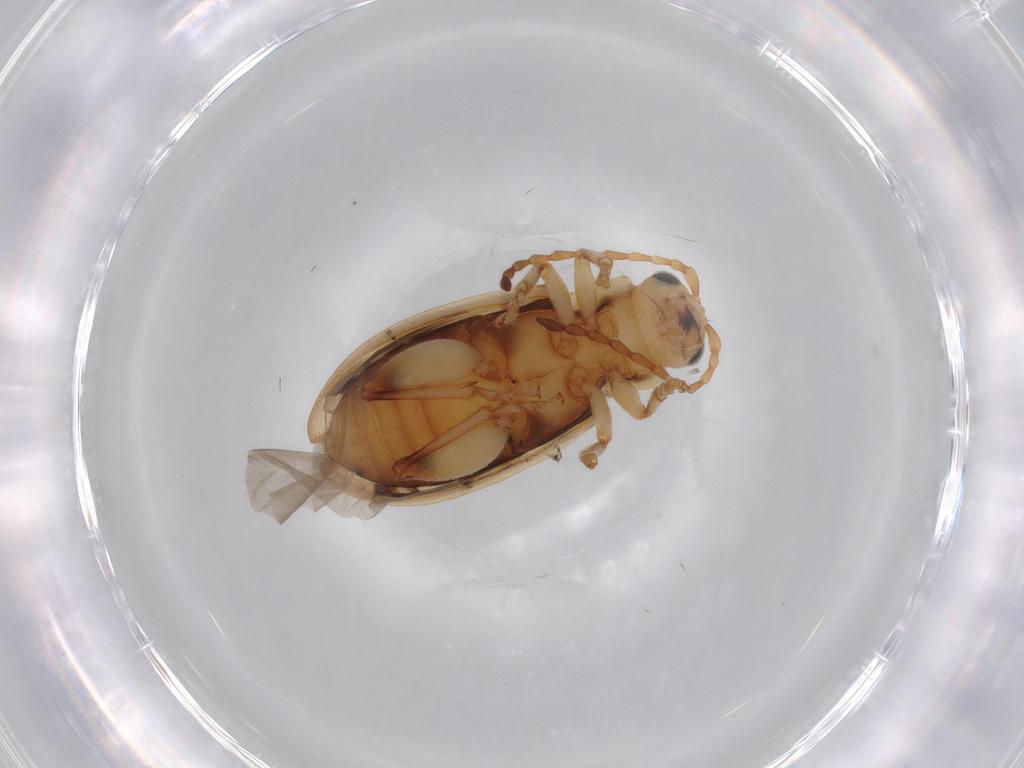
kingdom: Animalia
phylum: Arthropoda
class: Insecta
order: Coleoptera
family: Chrysomelidae
